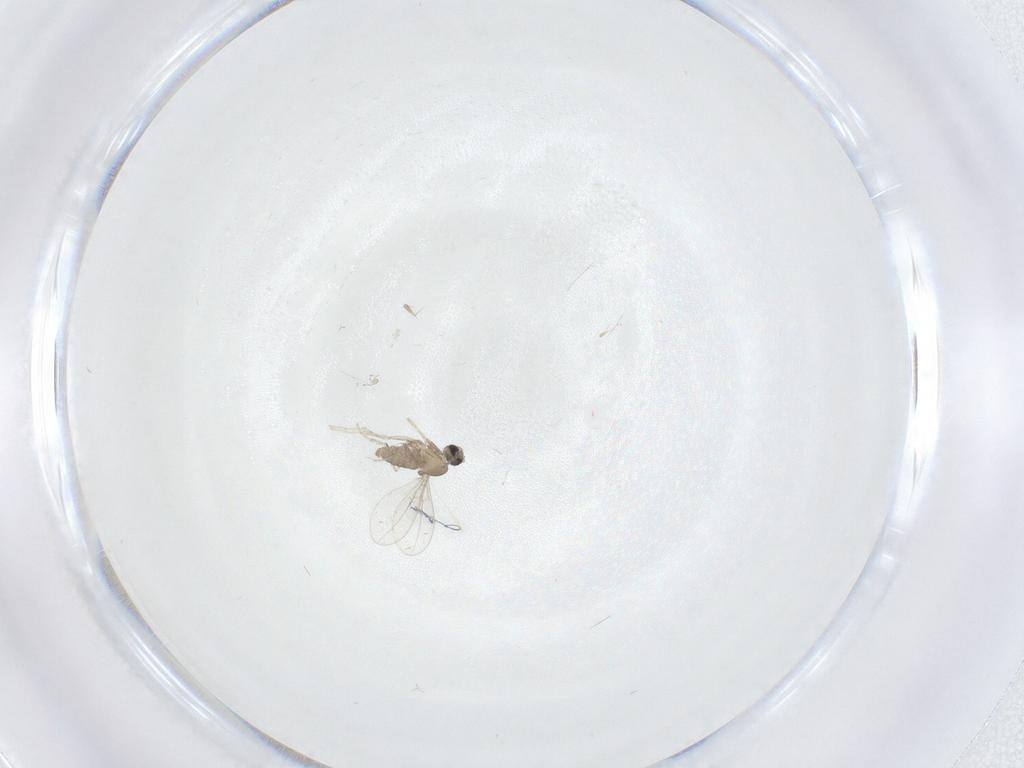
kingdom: Animalia
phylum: Arthropoda
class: Insecta
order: Diptera
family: Cecidomyiidae
